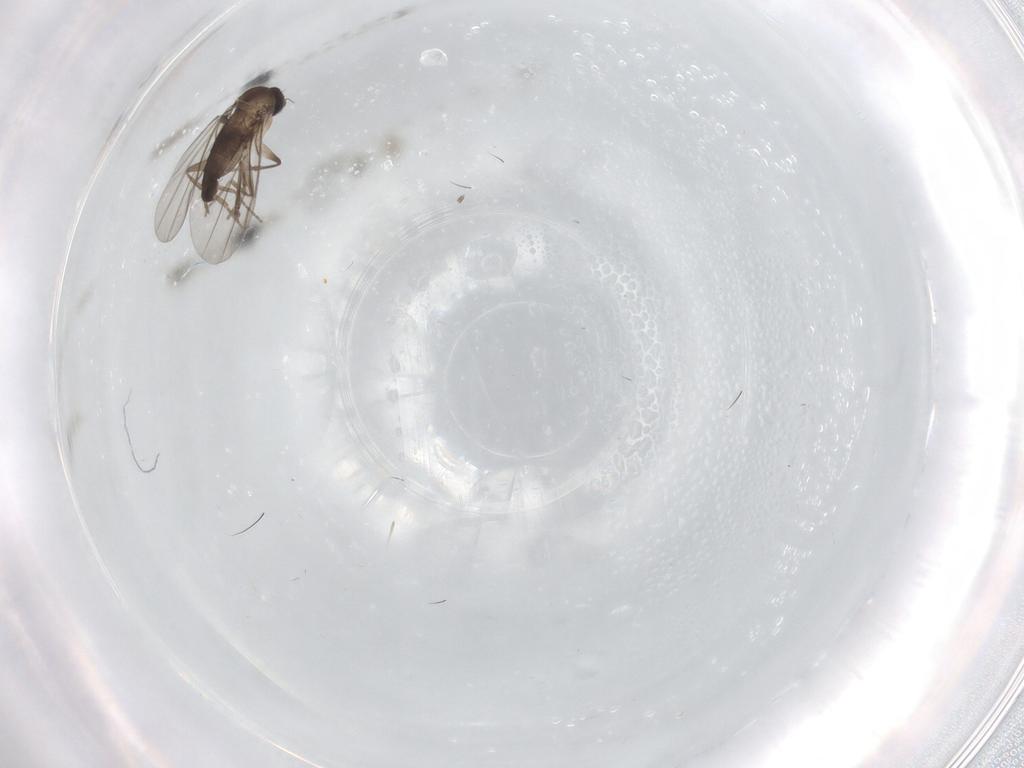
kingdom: Animalia
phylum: Arthropoda
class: Insecta
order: Diptera
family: Phoridae
